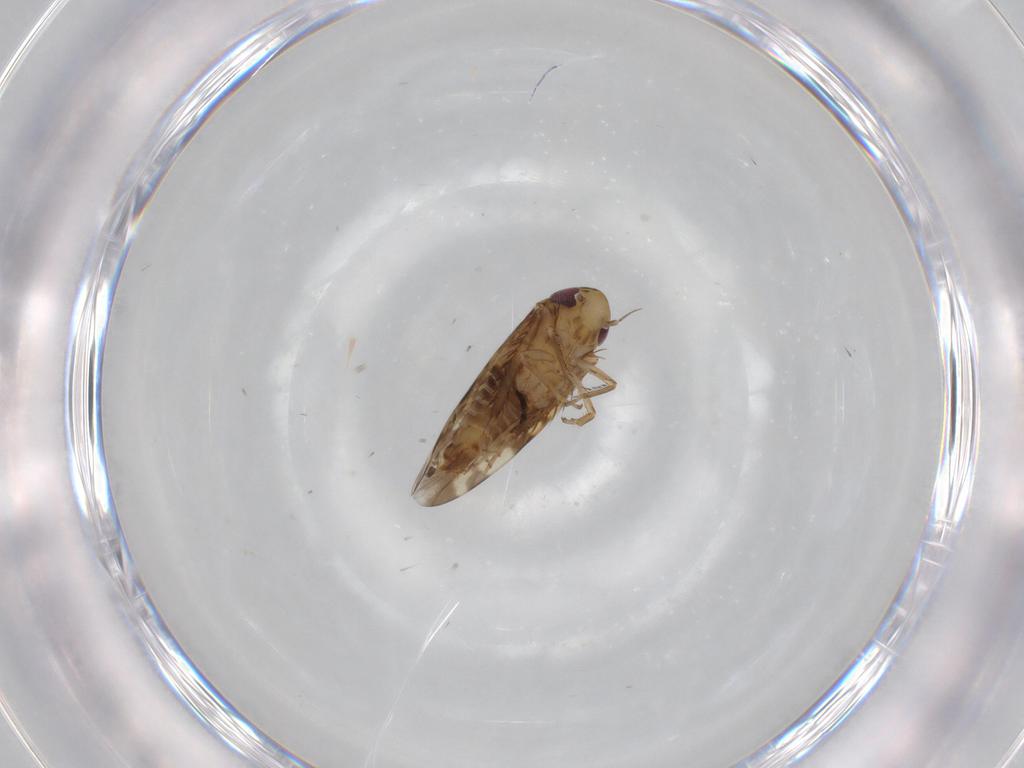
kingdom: Animalia
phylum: Arthropoda
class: Insecta
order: Hemiptera
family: Cicadellidae
